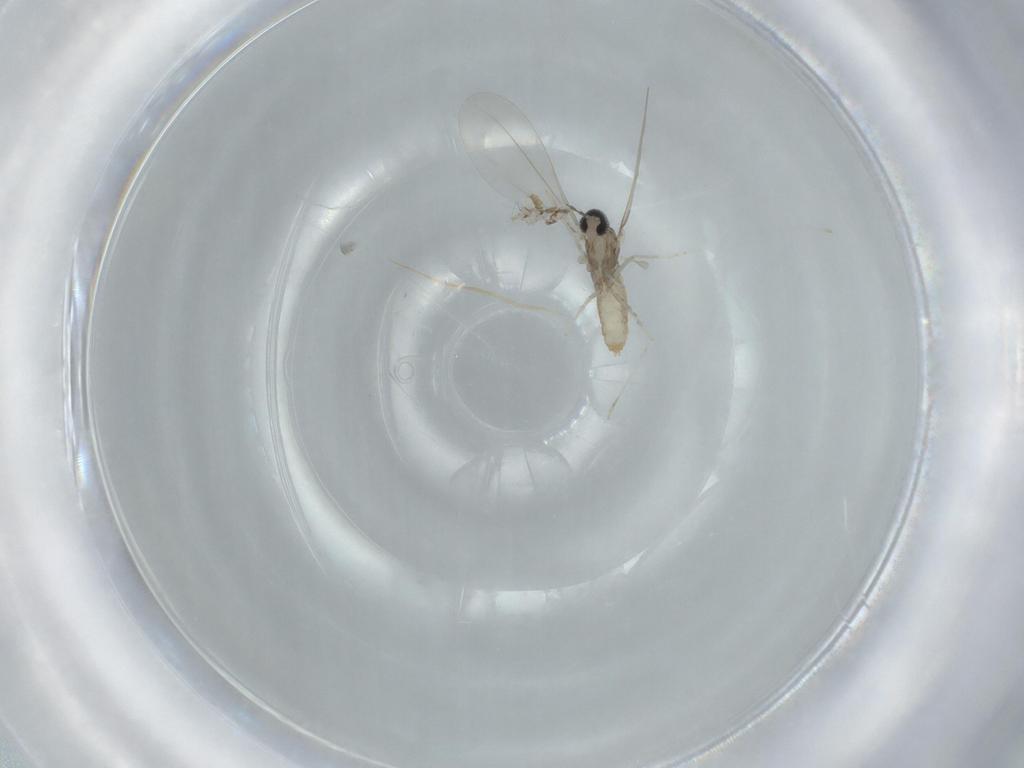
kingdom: Animalia
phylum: Arthropoda
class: Insecta
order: Diptera
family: Cecidomyiidae
